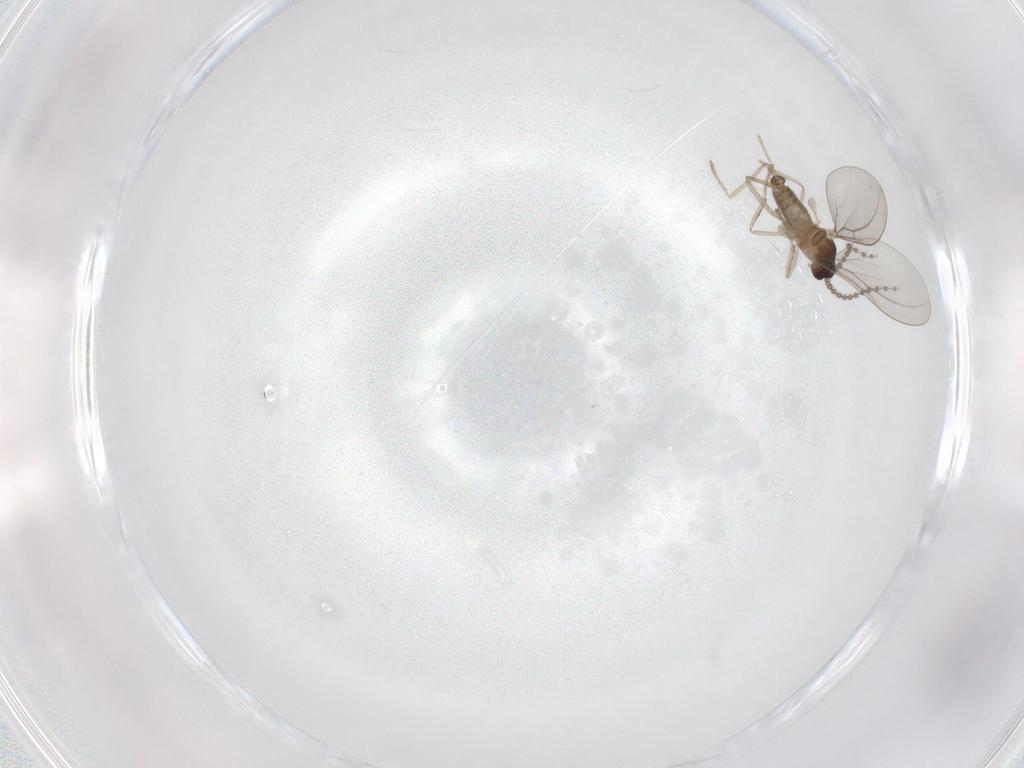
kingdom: Animalia
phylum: Arthropoda
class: Insecta
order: Diptera
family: Cecidomyiidae
